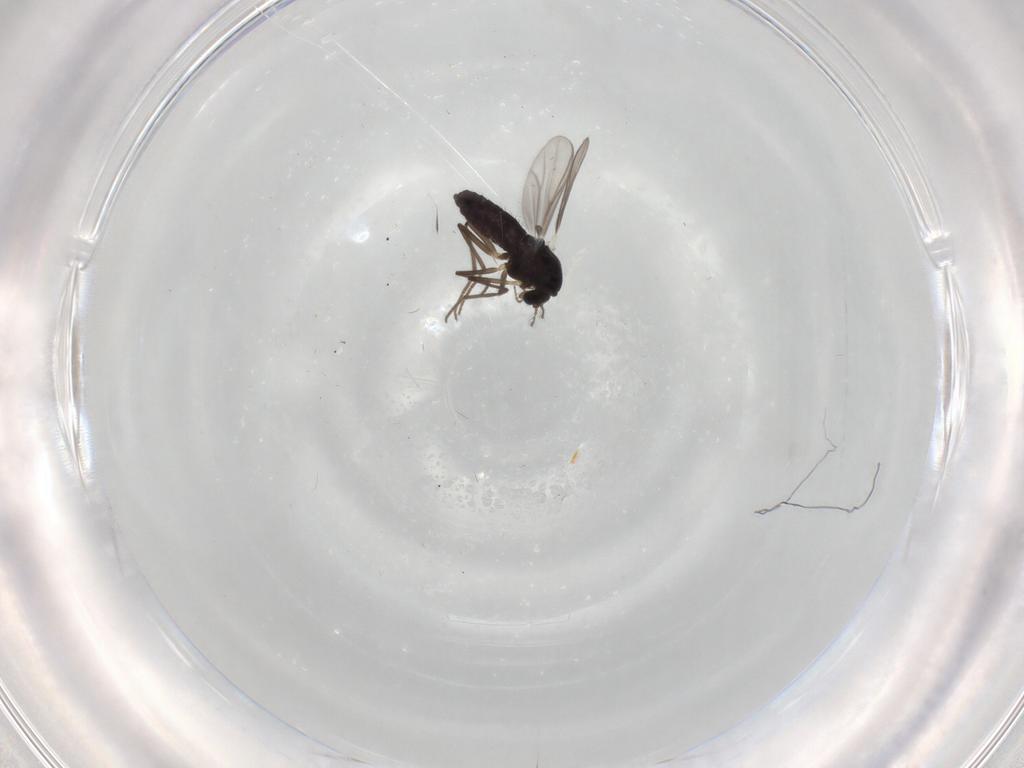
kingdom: Animalia
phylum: Arthropoda
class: Insecta
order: Diptera
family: Chironomidae
